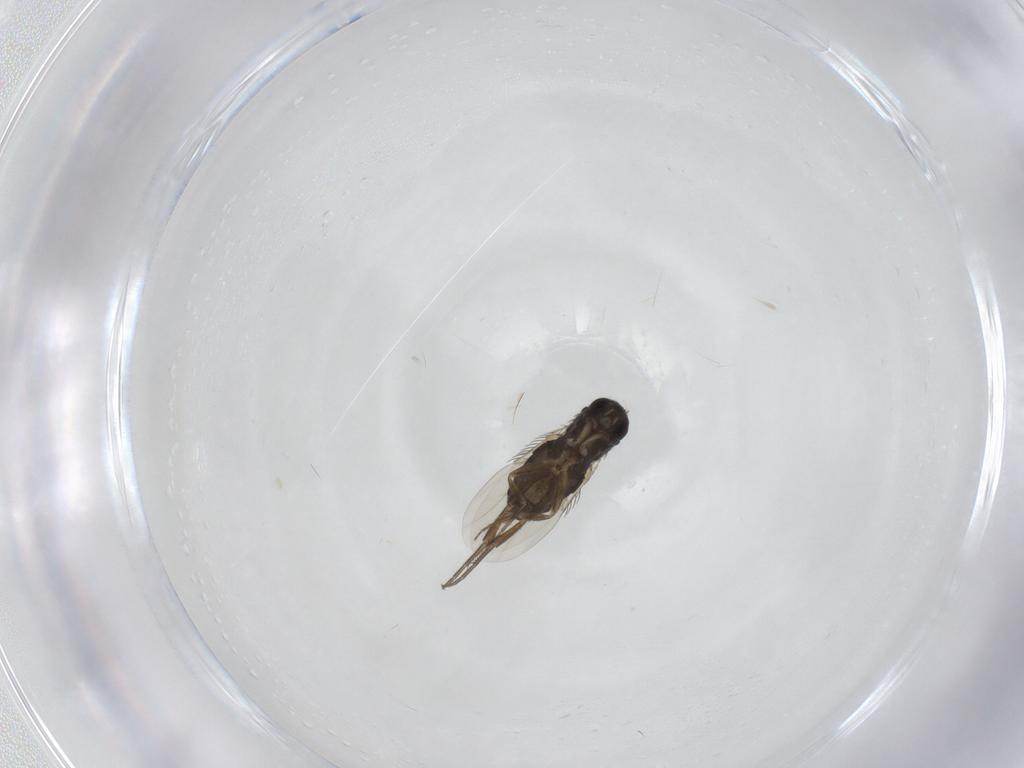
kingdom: Animalia
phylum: Arthropoda
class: Insecta
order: Diptera
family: Phoridae
